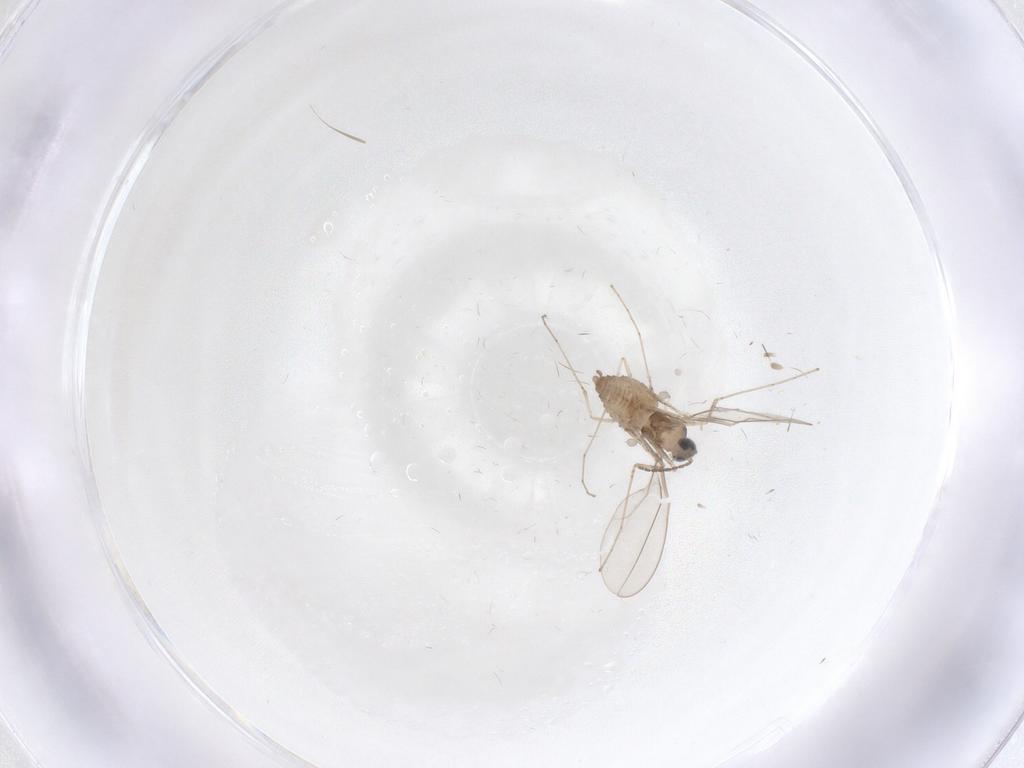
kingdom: Animalia
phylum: Arthropoda
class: Insecta
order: Diptera
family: Cecidomyiidae
